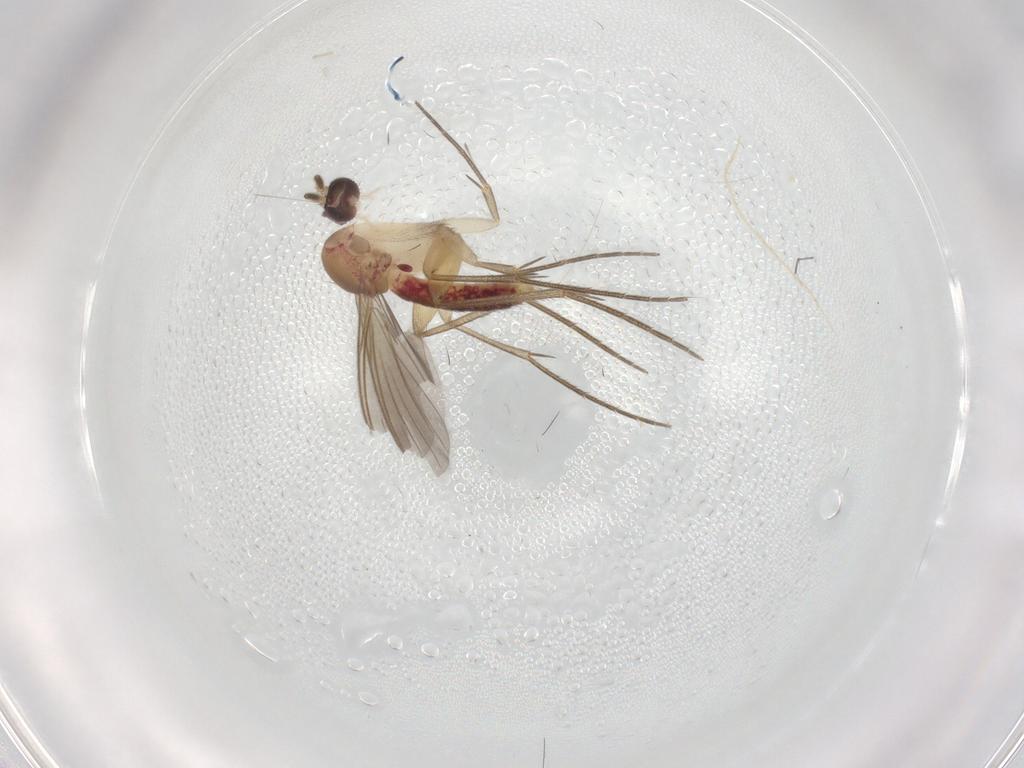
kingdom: Animalia
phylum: Arthropoda
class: Insecta
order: Diptera
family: Mycetophilidae
